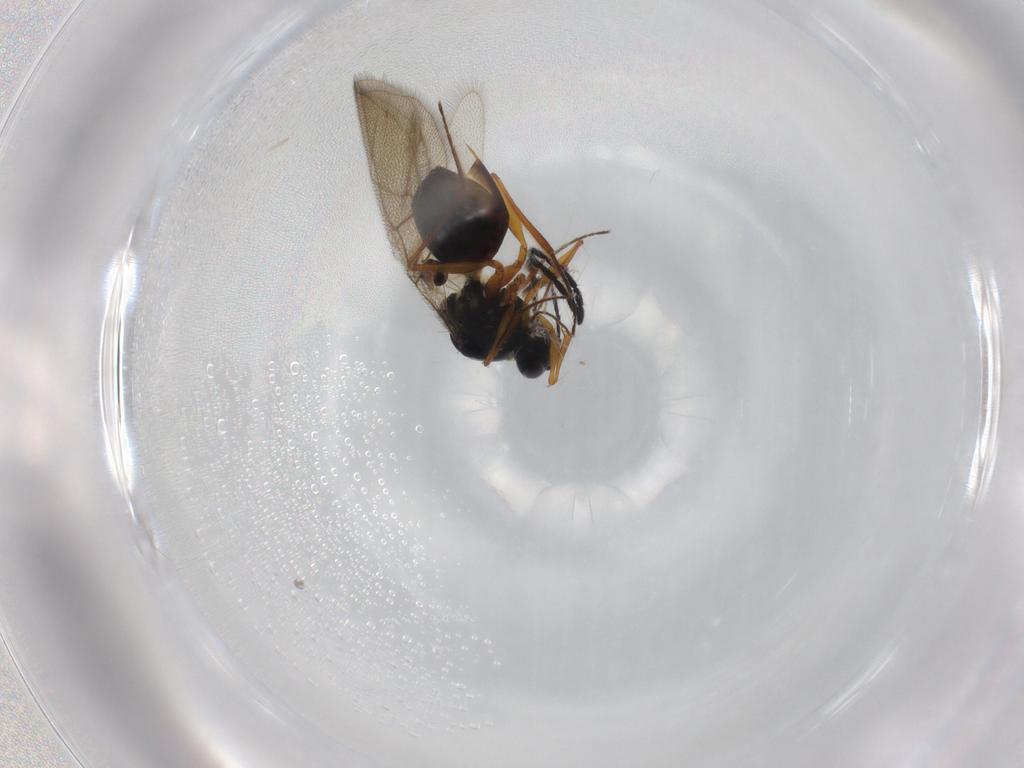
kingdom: Animalia
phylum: Arthropoda
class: Insecta
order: Hymenoptera
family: Figitidae
